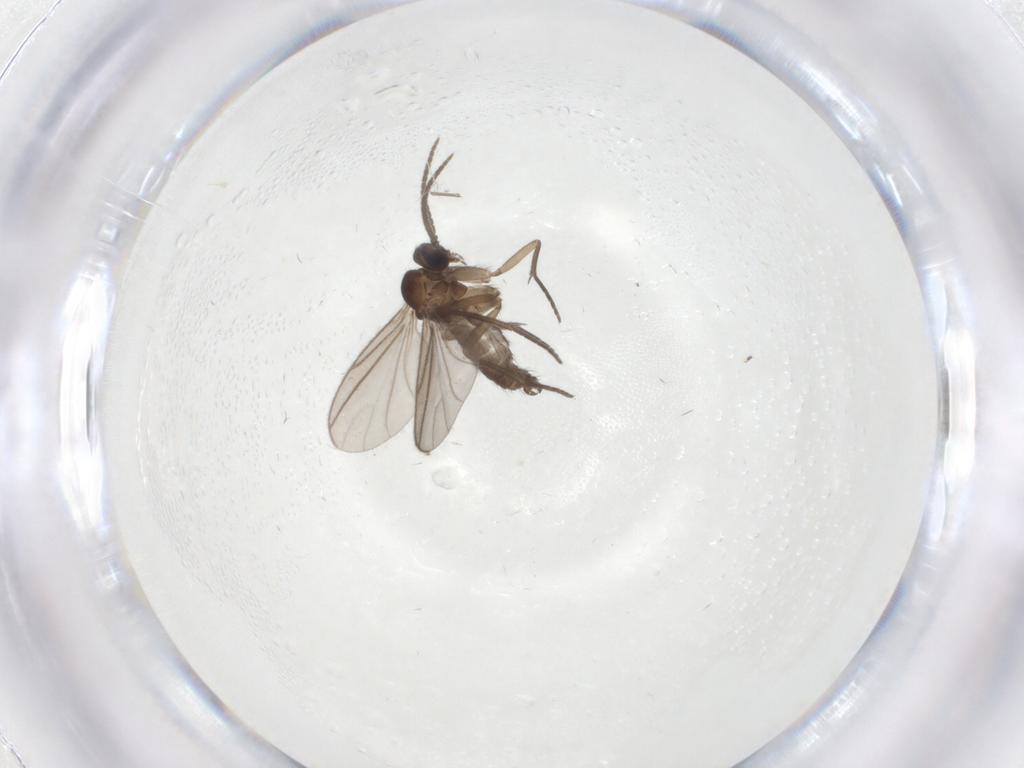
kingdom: Animalia
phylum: Arthropoda
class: Insecta
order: Diptera
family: Sciaridae
